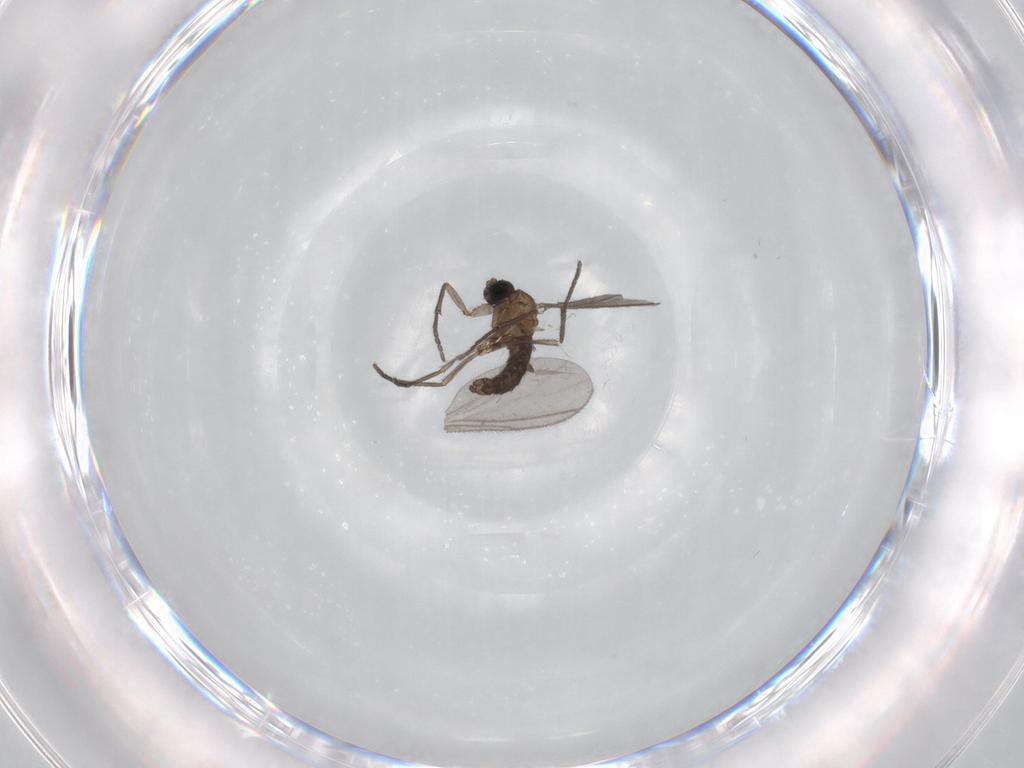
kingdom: Animalia
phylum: Arthropoda
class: Insecta
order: Diptera
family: Sciaridae
